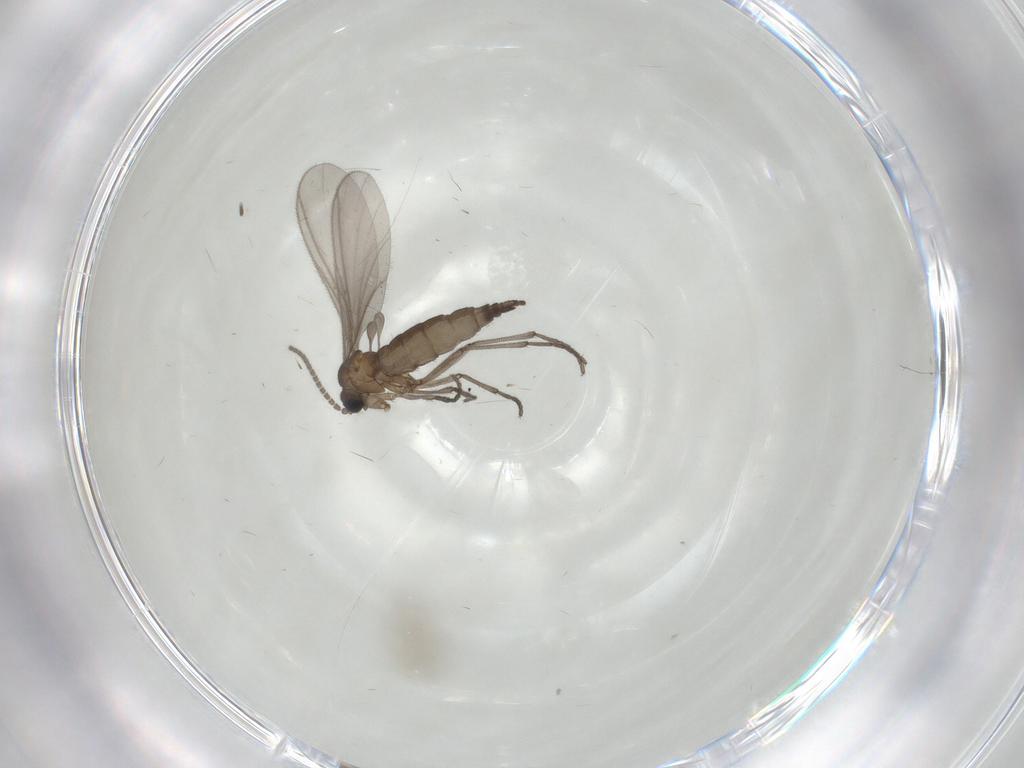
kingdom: Animalia
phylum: Arthropoda
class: Insecta
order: Diptera
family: Sciaridae
